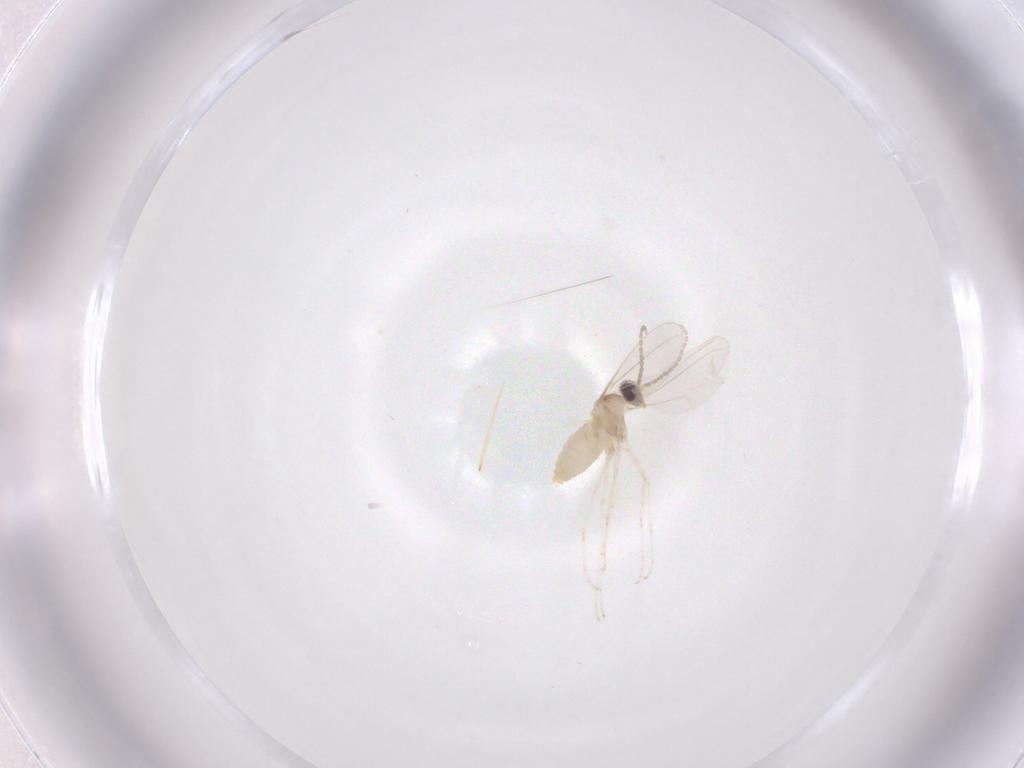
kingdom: Animalia
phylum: Arthropoda
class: Insecta
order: Diptera
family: Cecidomyiidae
